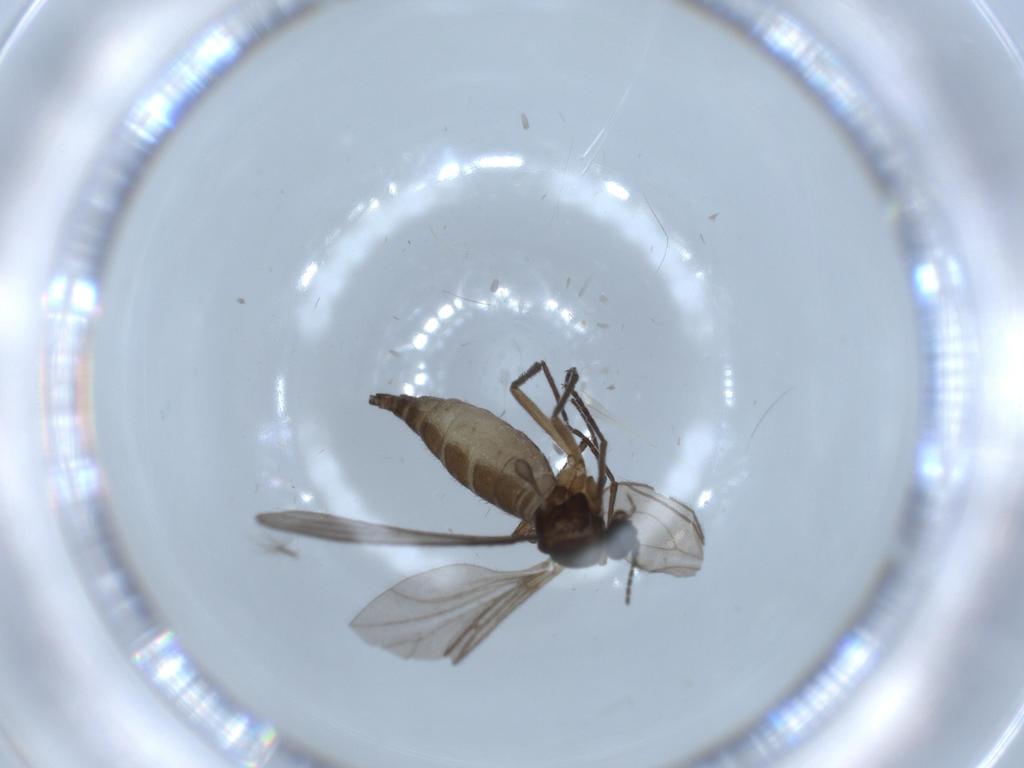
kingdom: Animalia
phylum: Arthropoda
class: Insecta
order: Diptera
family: Sciaridae
